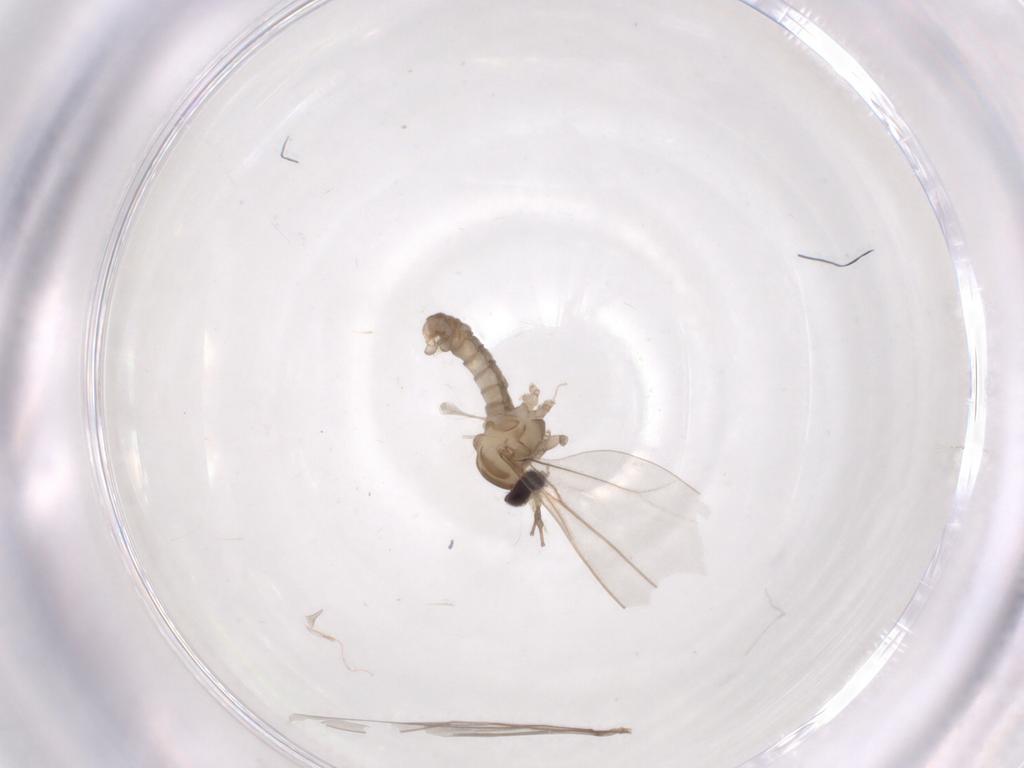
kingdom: Animalia
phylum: Arthropoda
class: Insecta
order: Diptera
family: Cecidomyiidae
